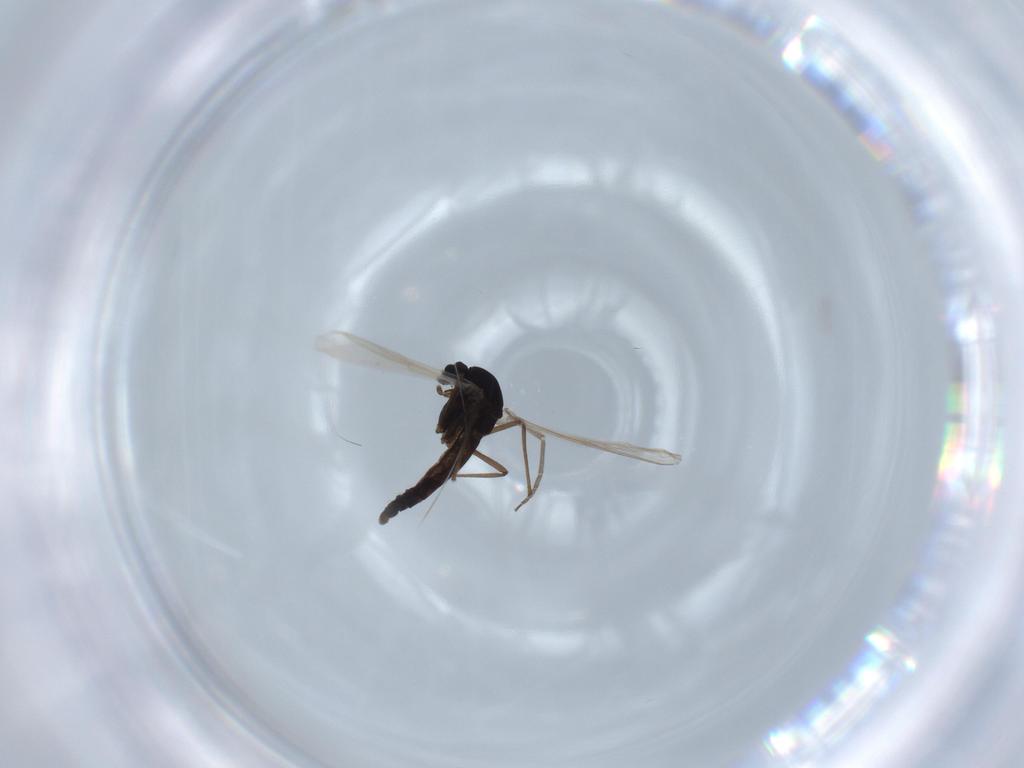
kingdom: Animalia
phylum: Arthropoda
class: Insecta
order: Diptera
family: Chironomidae
